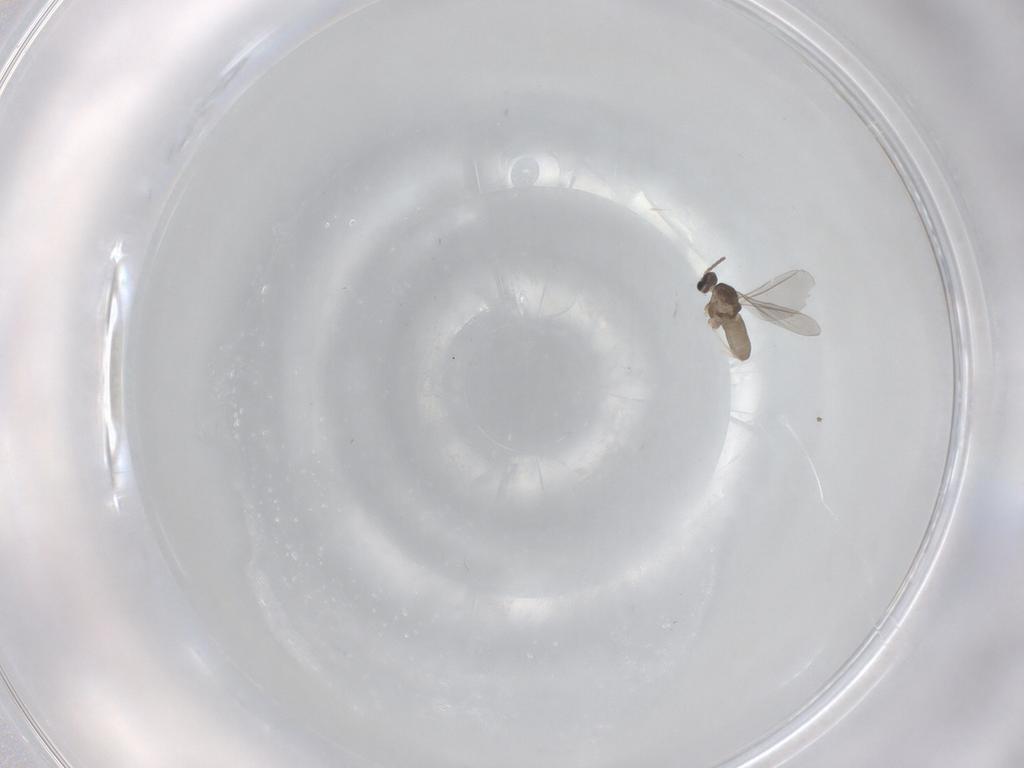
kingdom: Animalia
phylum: Arthropoda
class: Insecta
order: Diptera
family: Cecidomyiidae
